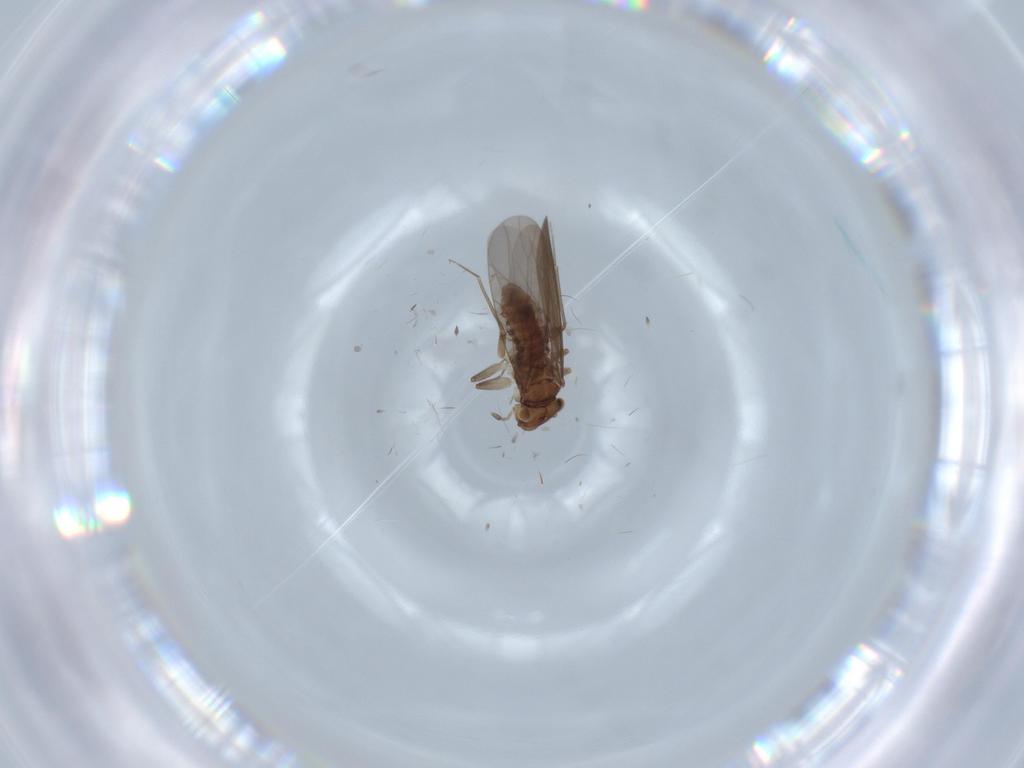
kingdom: Animalia
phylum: Arthropoda
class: Insecta
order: Psocodea
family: Lepidopsocidae
